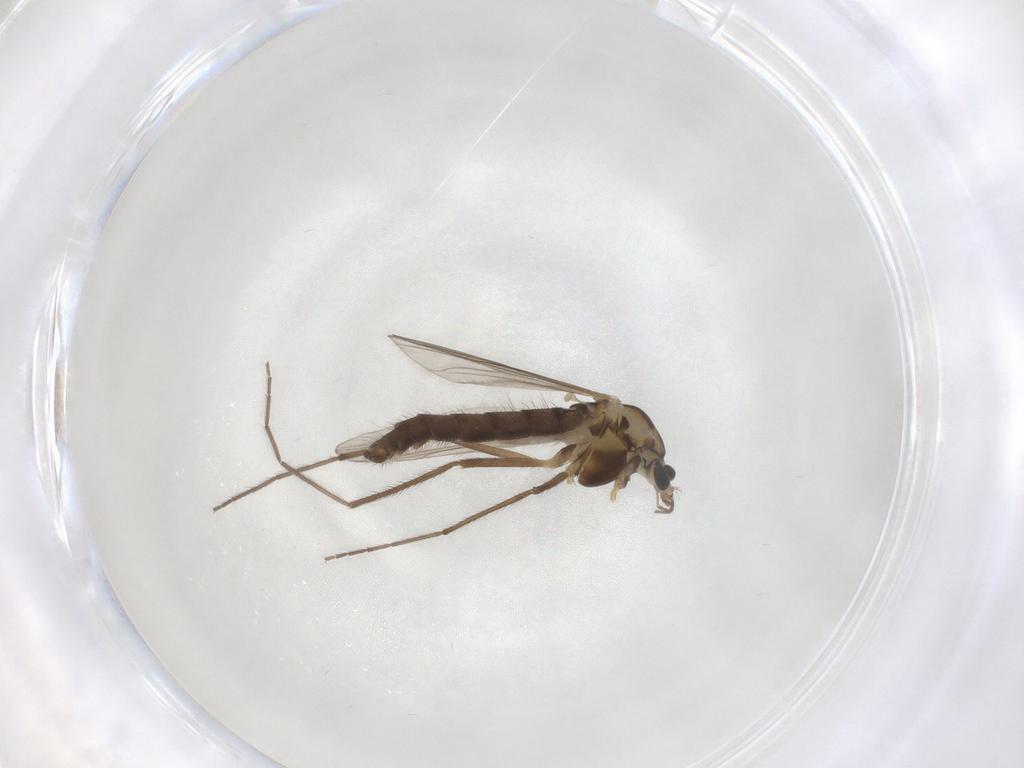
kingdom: Animalia
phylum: Arthropoda
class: Insecta
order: Diptera
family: Chironomidae
